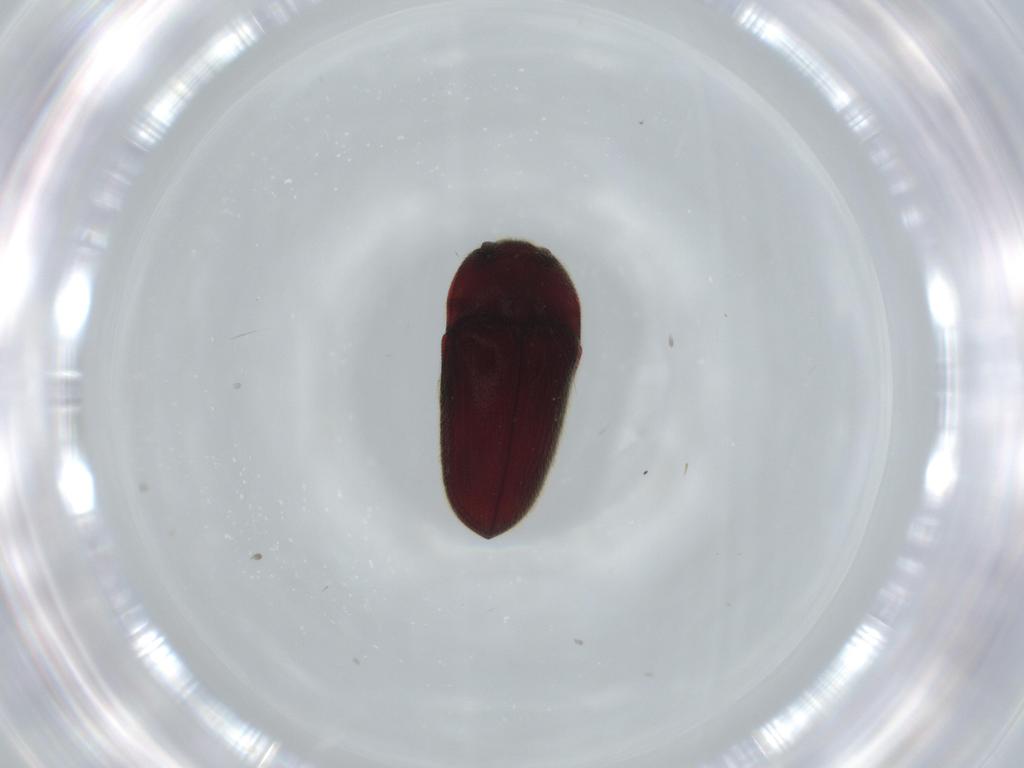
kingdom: Animalia
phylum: Arthropoda
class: Insecta
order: Coleoptera
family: Throscidae
